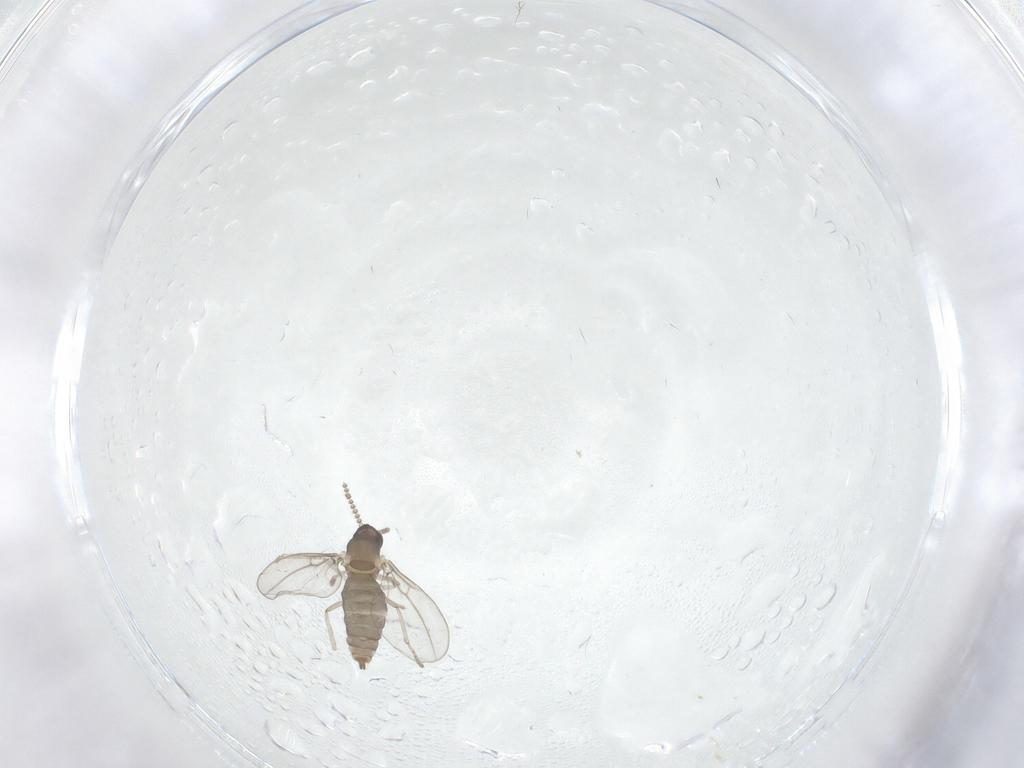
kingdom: Animalia
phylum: Arthropoda
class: Insecta
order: Diptera
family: Cecidomyiidae
